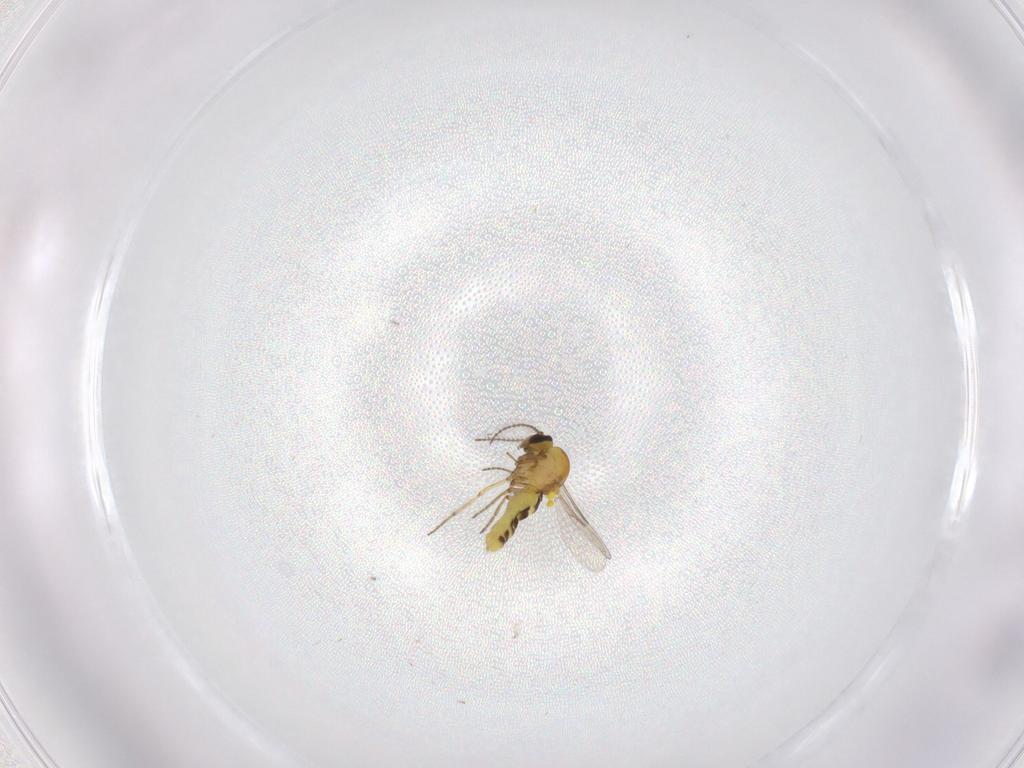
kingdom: Animalia
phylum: Arthropoda
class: Insecta
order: Diptera
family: Ceratopogonidae
